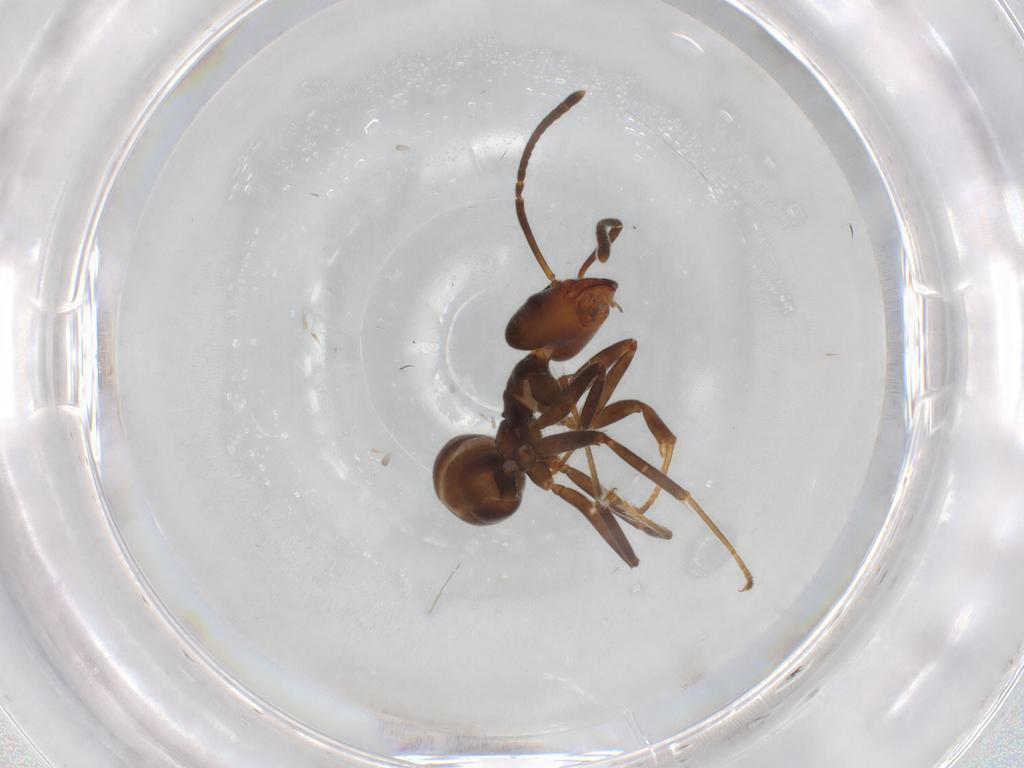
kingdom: Animalia
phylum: Arthropoda
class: Insecta
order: Hymenoptera
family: Formicidae
